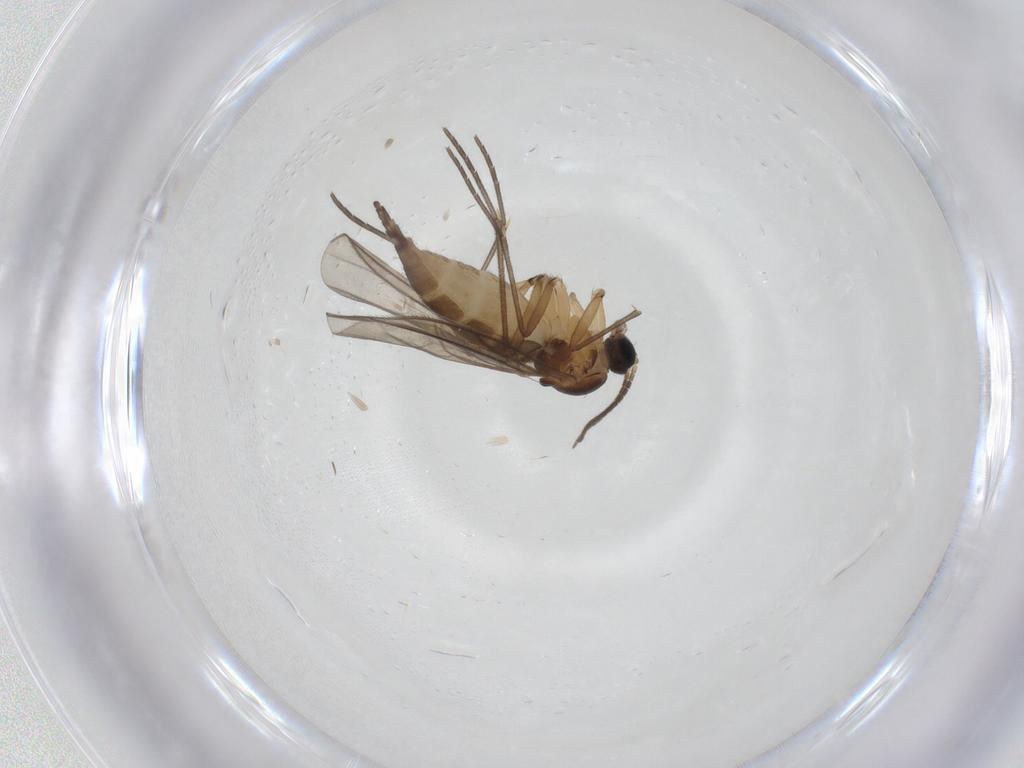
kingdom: Animalia
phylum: Arthropoda
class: Insecta
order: Diptera
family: Sciaridae
